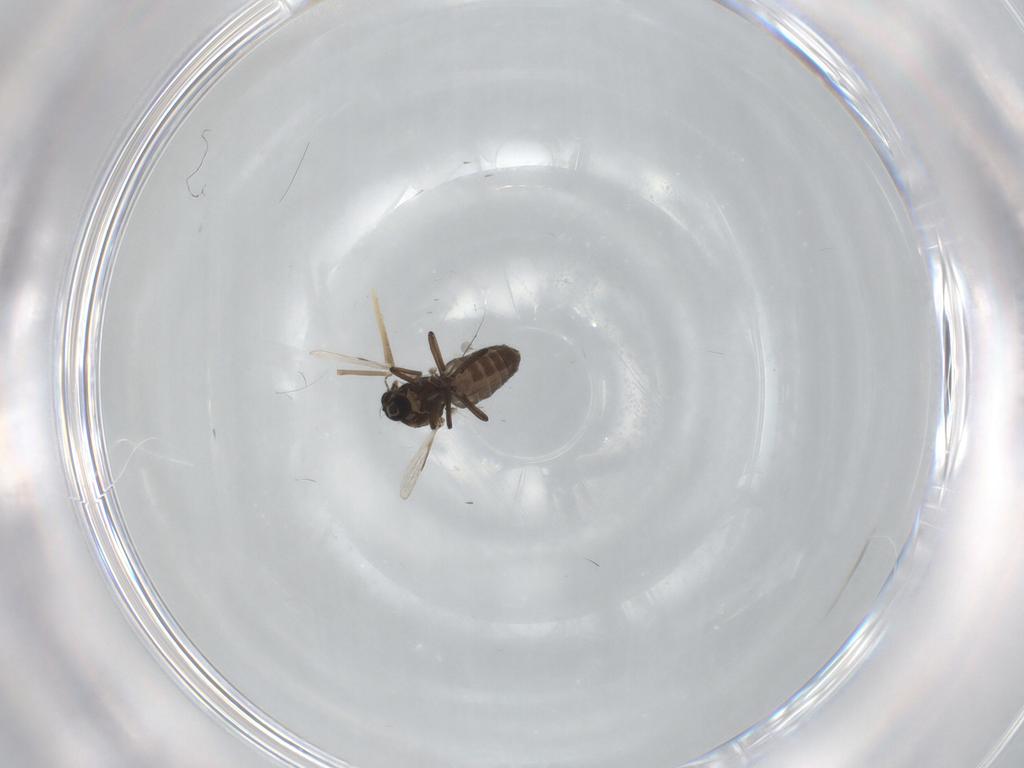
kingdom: Animalia
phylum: Arthropoda
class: Insecta
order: Diptera
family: Ceratopogonidae
